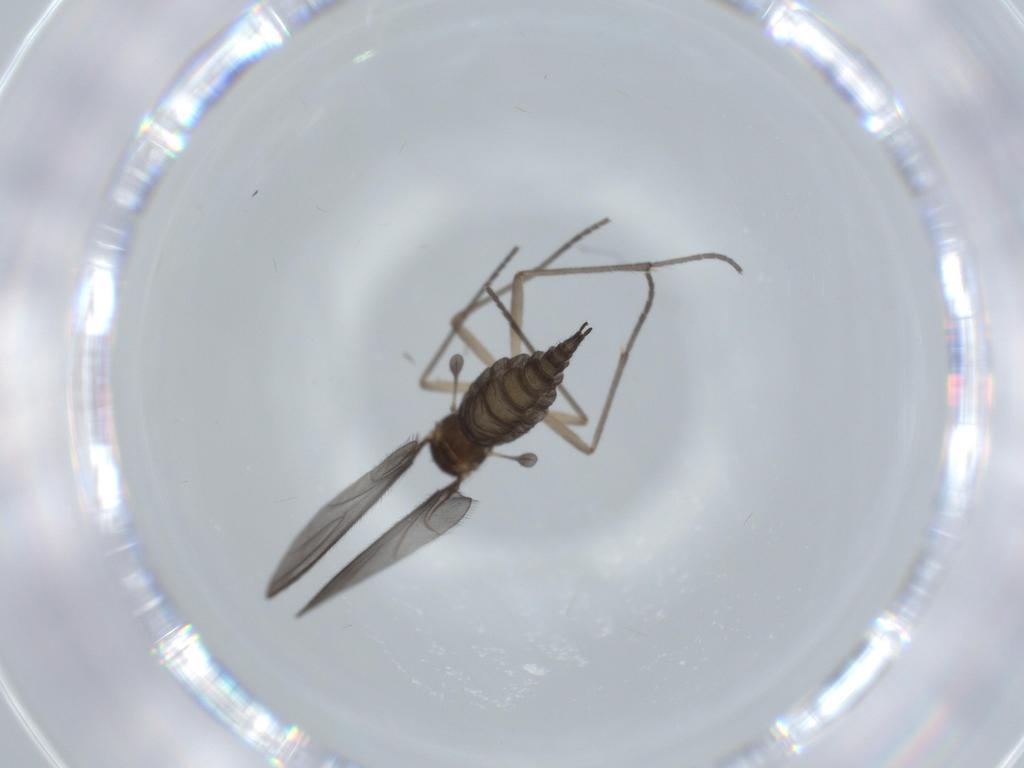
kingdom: Animalia
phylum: Arthropoda
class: Insecta
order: Diptera
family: Sciaridae
